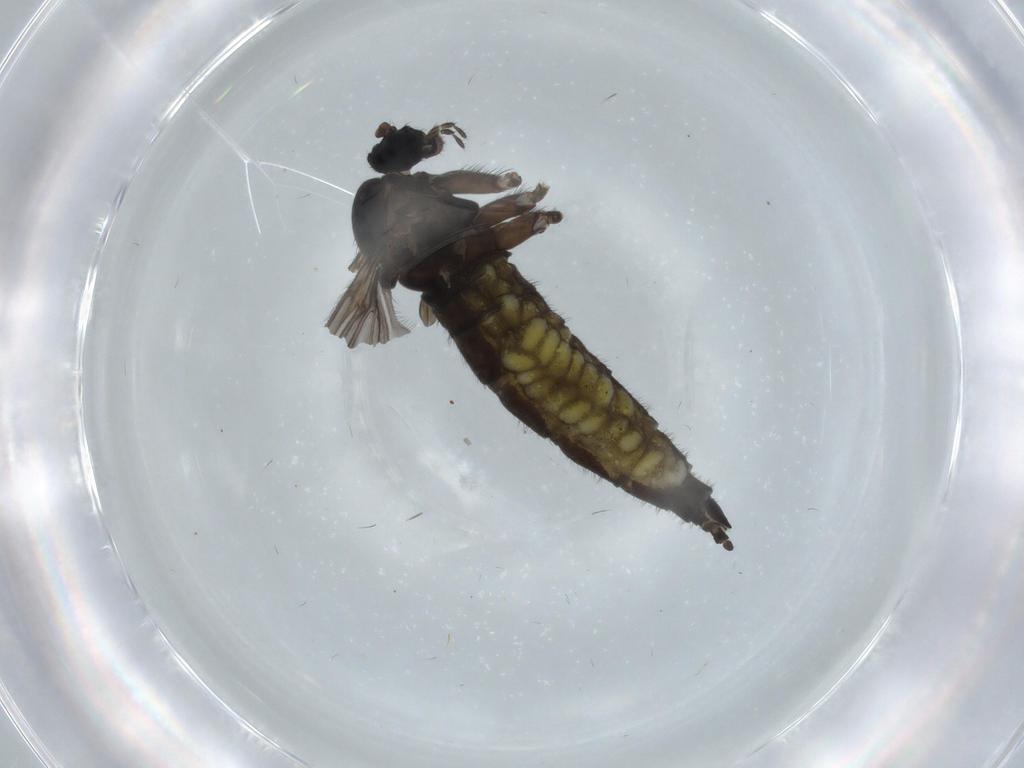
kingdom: Animalia
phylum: Arthropoda
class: Insecta
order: Diptera
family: Sciaridae
